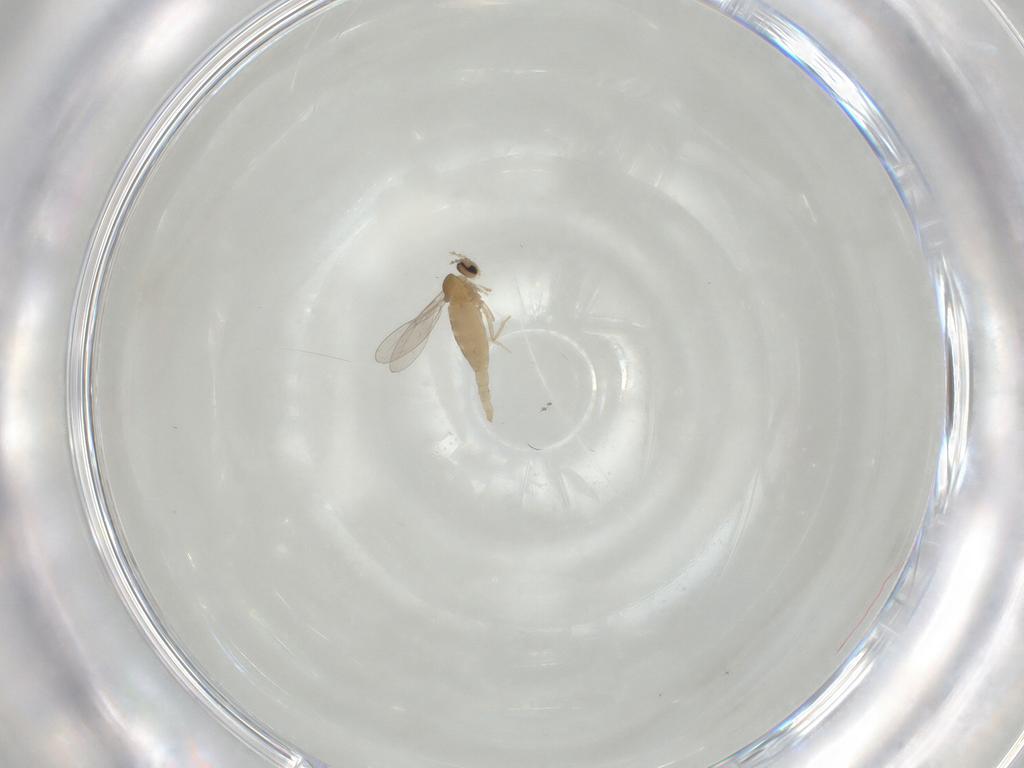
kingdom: Animalia
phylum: Arthropoda
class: Insecta
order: Diptera
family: Cecidomyiidae
